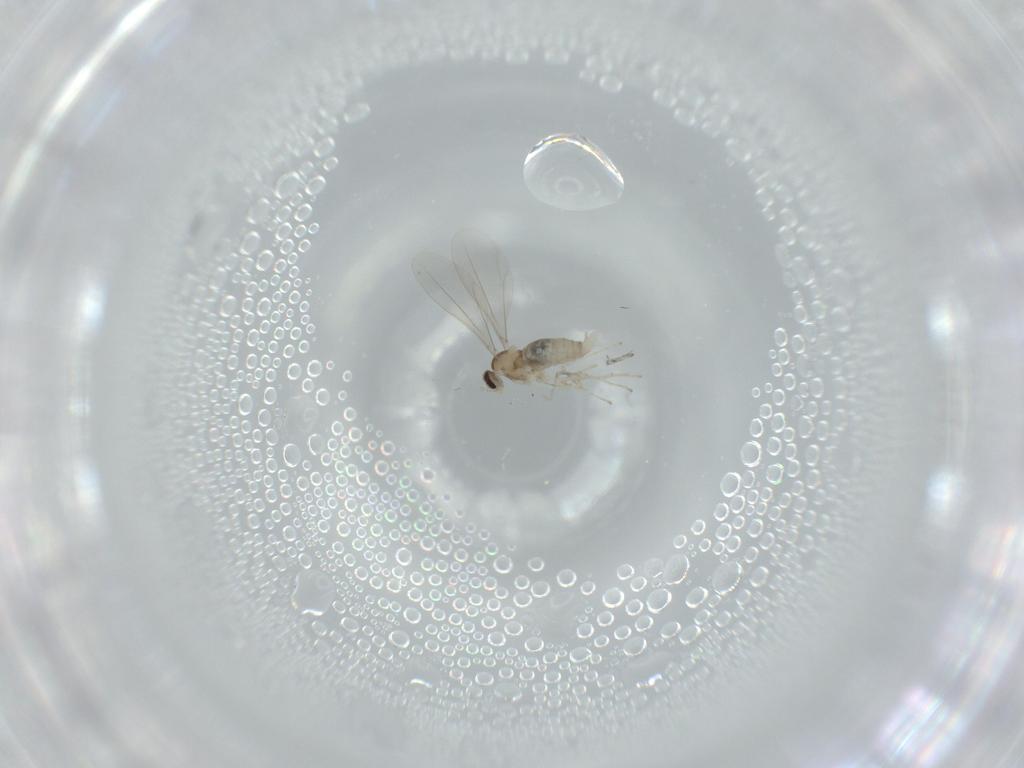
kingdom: Animalia
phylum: Arthropoda
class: Insecta
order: Diptera
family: Cecidomyiidae
